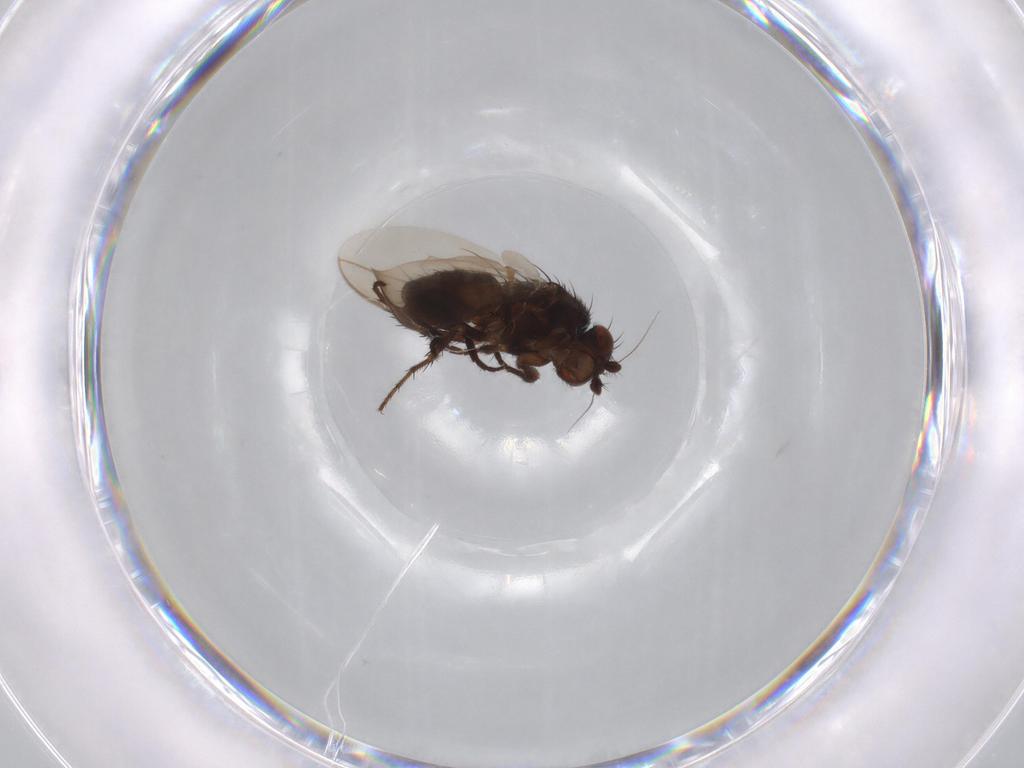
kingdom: Animalia
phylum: Arthropoda
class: Insecta
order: Diptera
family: Sphaeroceridae
